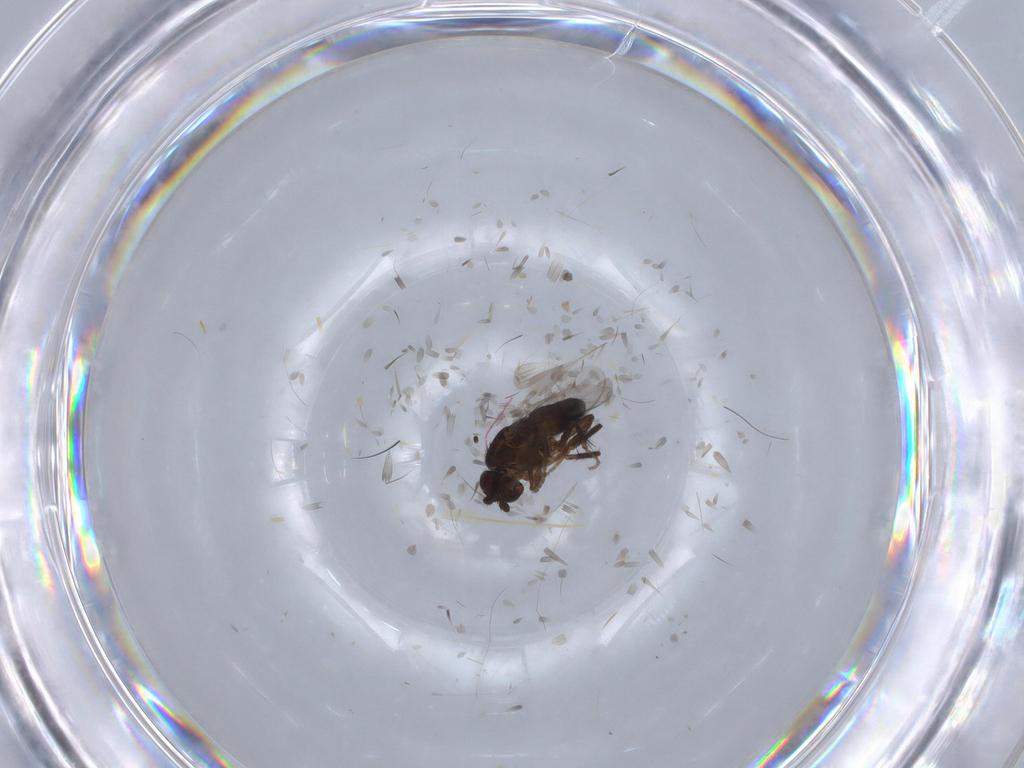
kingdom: Animalia
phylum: Arthropoda
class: Insecta
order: Diptera
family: Sphaeroceridae
